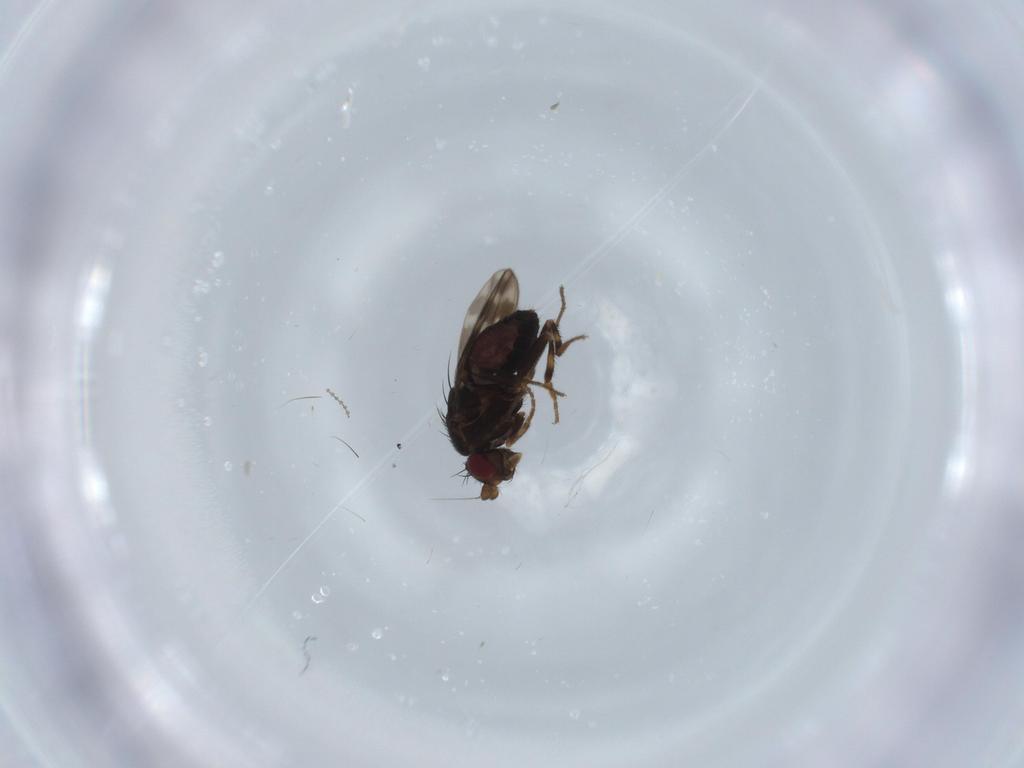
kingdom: Animalia
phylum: Arthropoda
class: Insecta
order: Diptera
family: Sphaeroceridae
